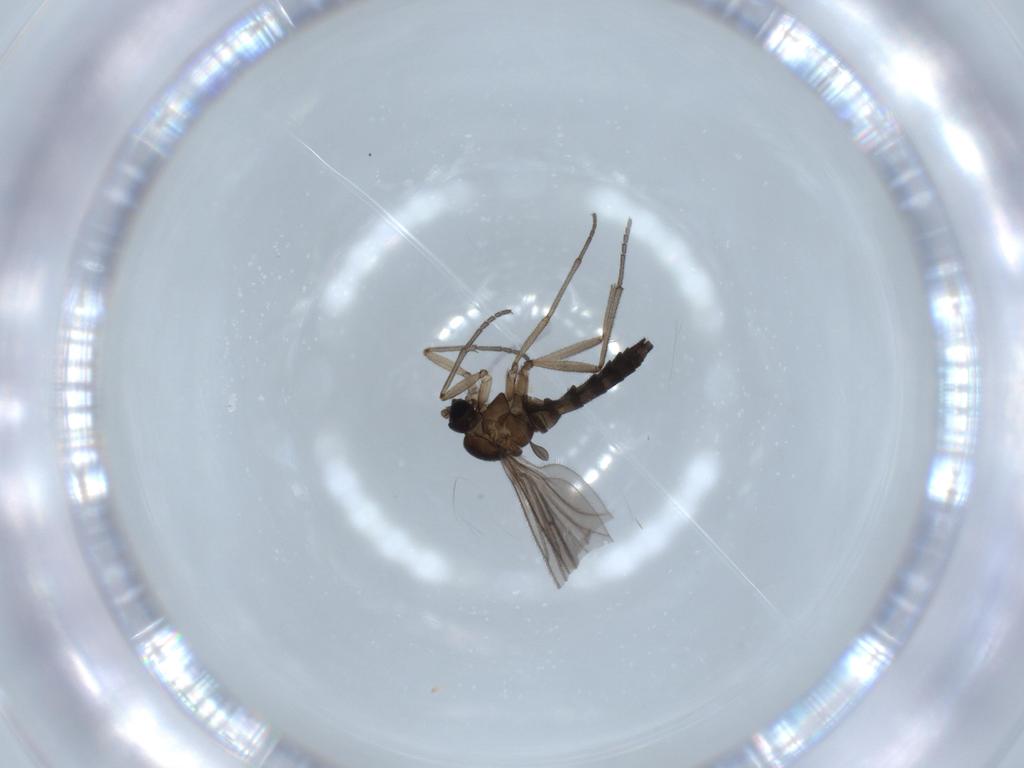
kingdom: Animalia
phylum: Arthropoda
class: Insecta
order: Diptera
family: Sciaridae
